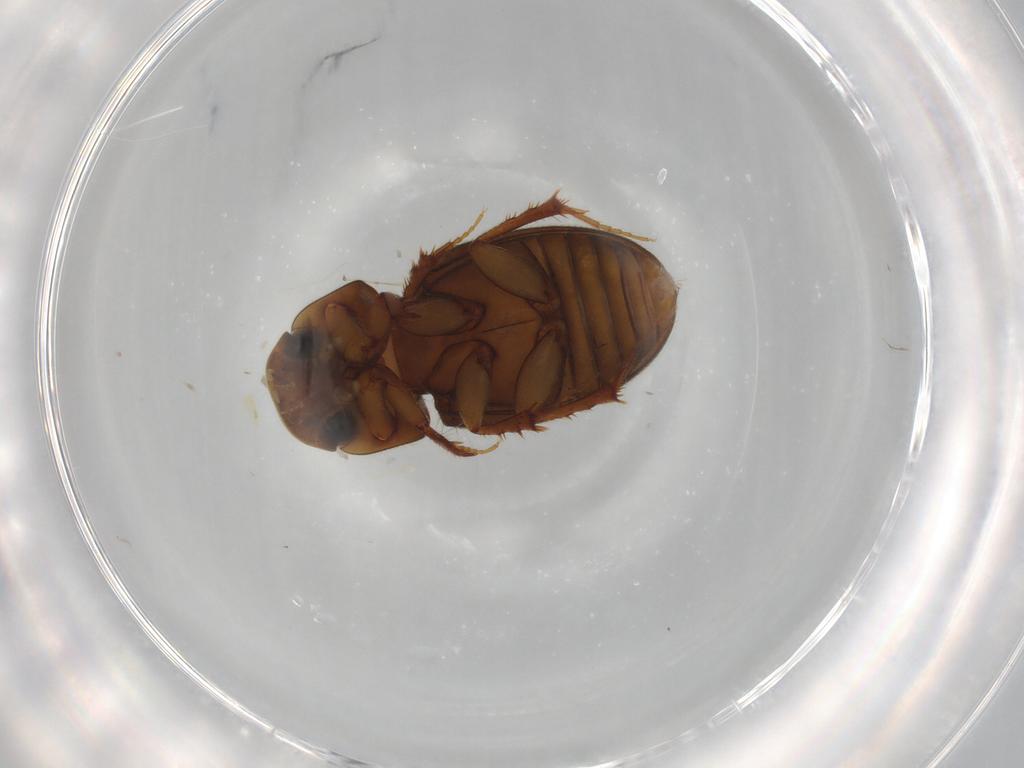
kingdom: Animalia
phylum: Arthropoda
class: Insecta
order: Coleoptera
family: Scarabaeidae
